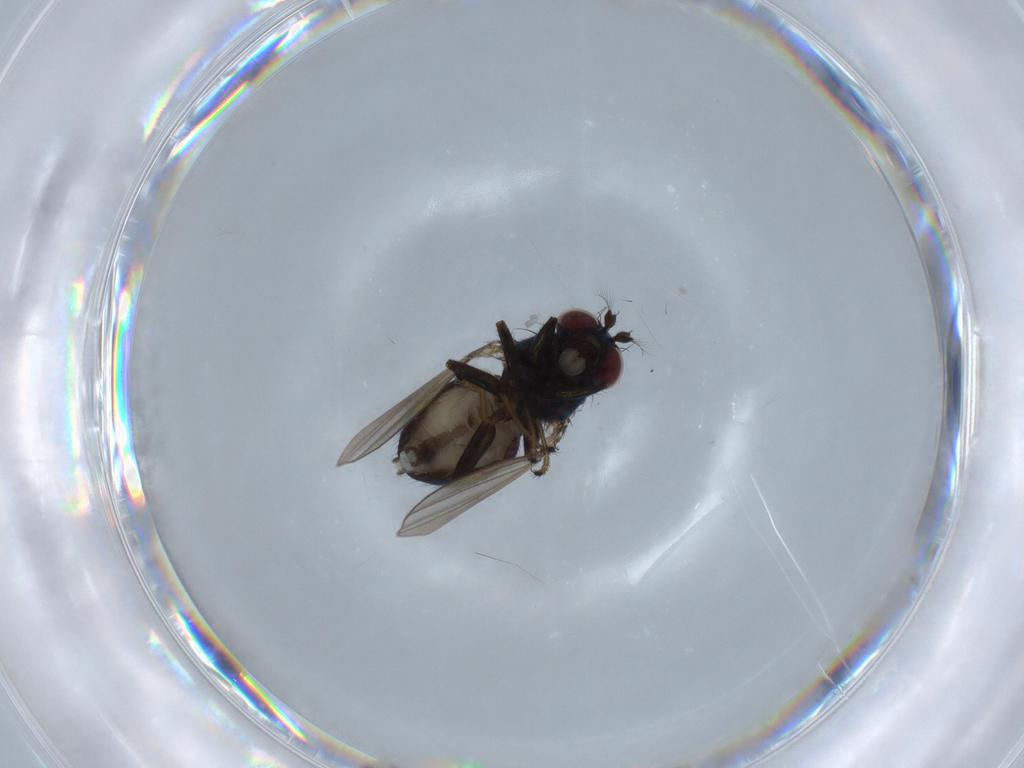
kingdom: Animalia
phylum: Arthropoda
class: Insecta
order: Diptera
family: Ephydridae
